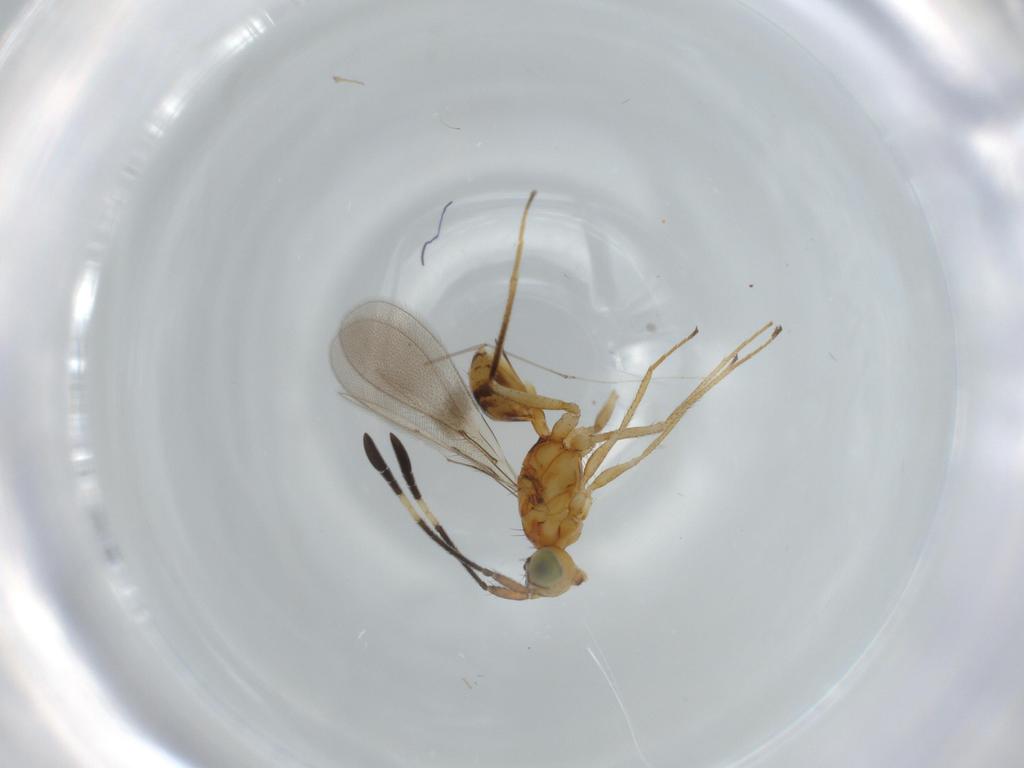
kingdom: Animalia
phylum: Arthropoda
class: Insecta
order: Hymenoptera
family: Mymaridae
